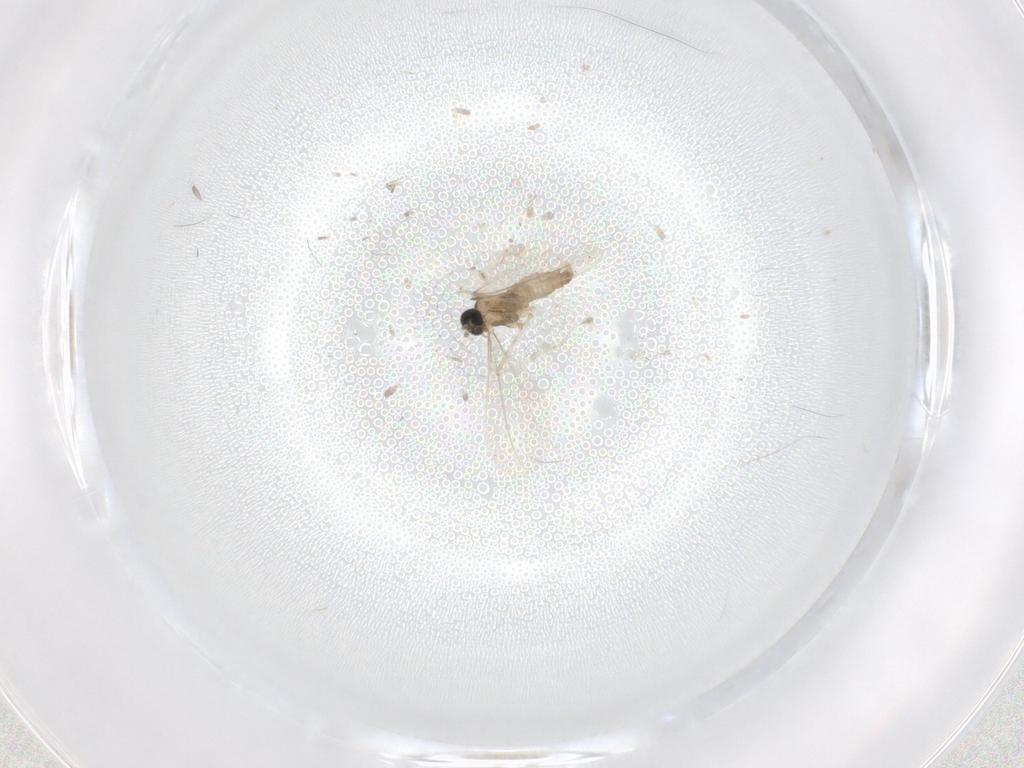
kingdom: Animalia
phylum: Arthropoda
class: Insecta
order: Diptera
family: Cecidomyiidae
